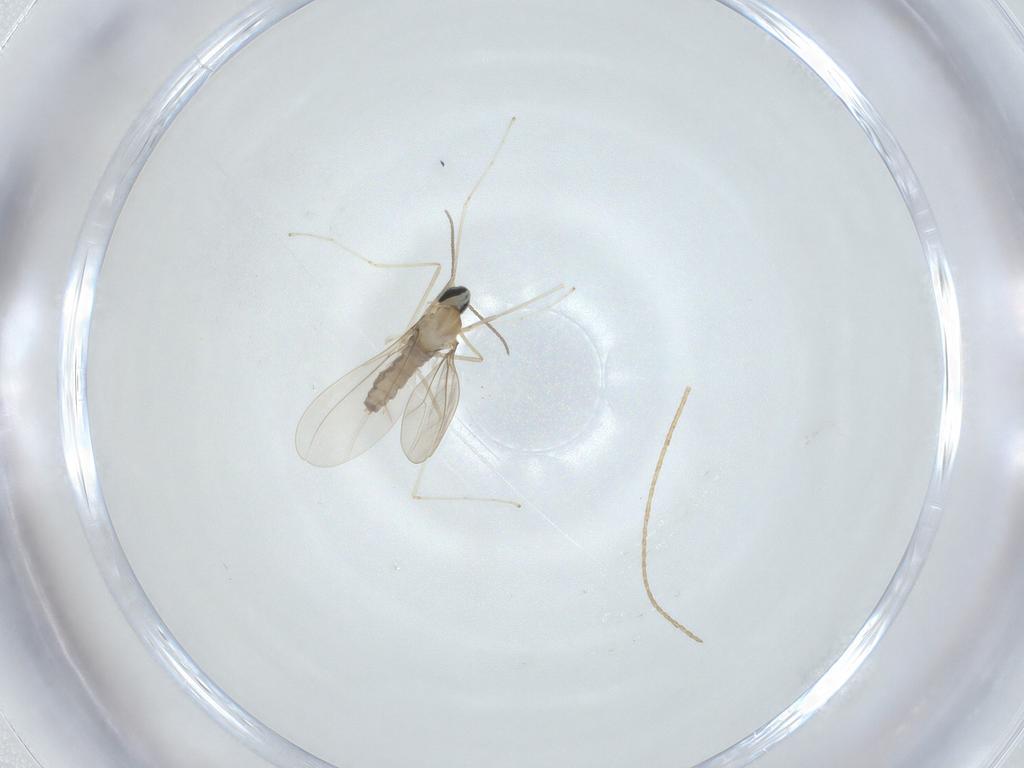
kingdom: Animalia
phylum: Arthropoda
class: Insecta
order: Diptera
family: Cecidomyiidae
